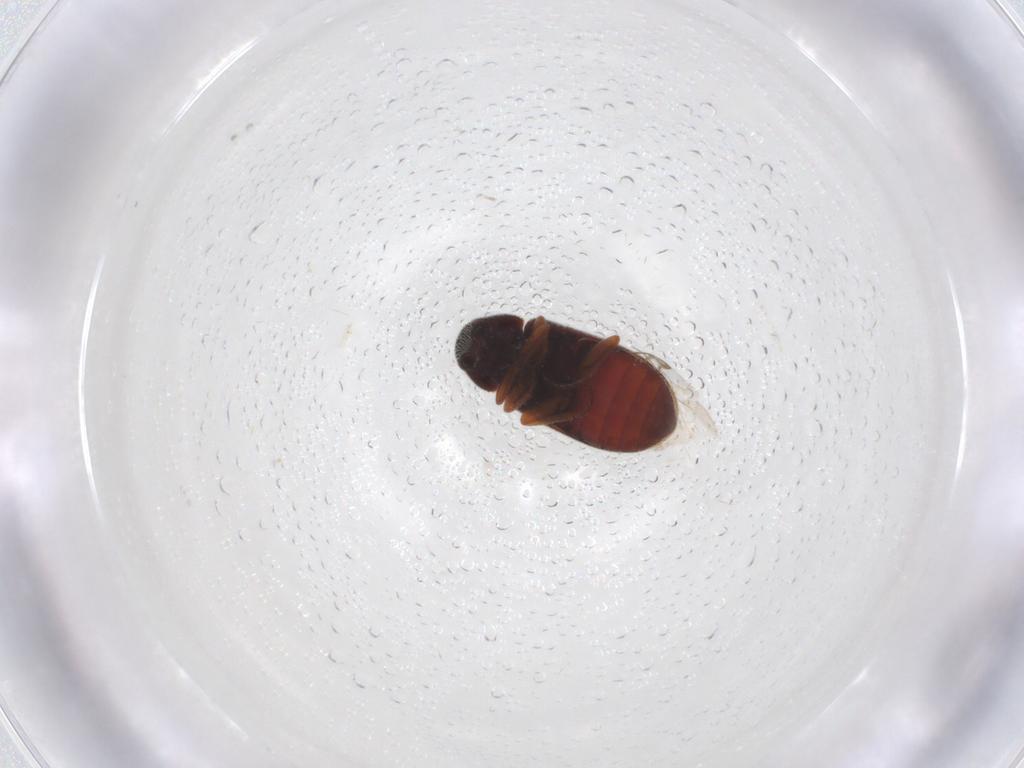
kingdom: Animalia
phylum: Arthropoda
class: Insecta
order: Coleoptera
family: Rhadalidae
